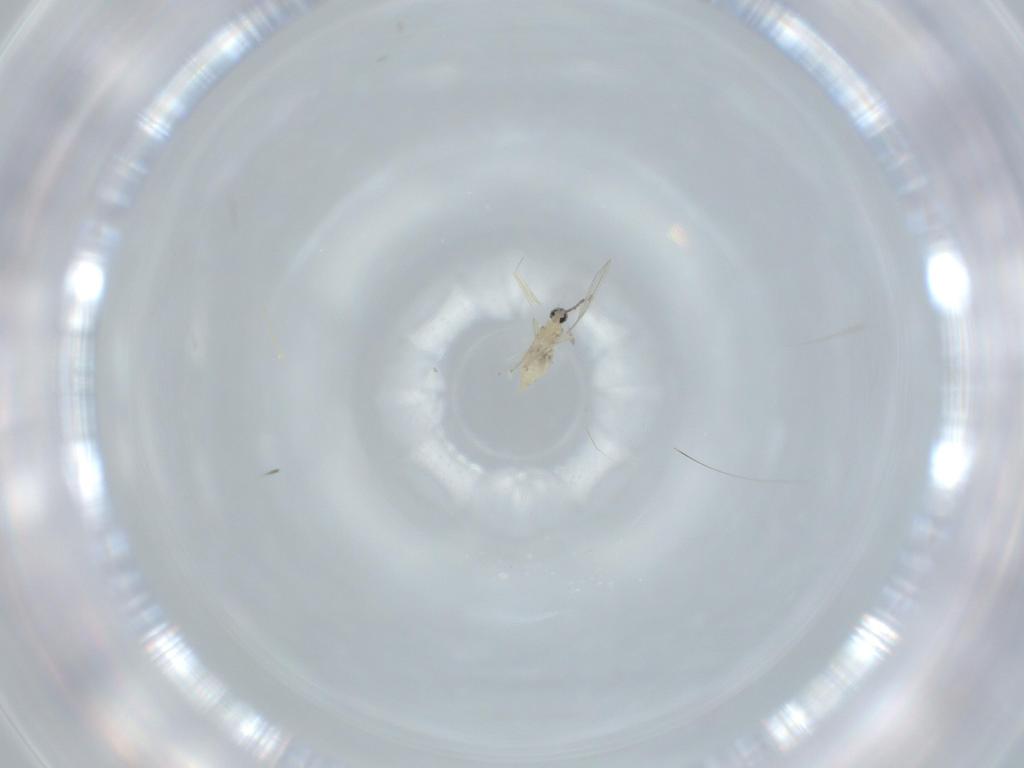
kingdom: Animalia
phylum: Arthropoda
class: Insecta
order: Diptera
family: Cecidomyiidae
